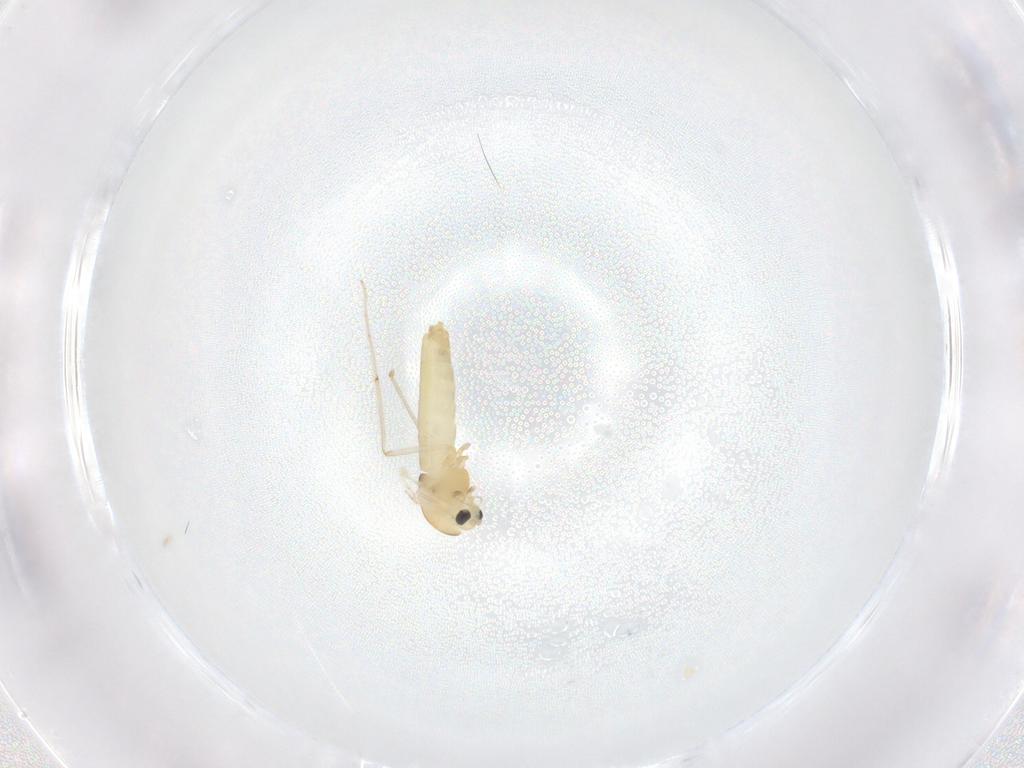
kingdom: Animalia
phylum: Arthropoda
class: Insecta
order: Diptera
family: Chironomidae
